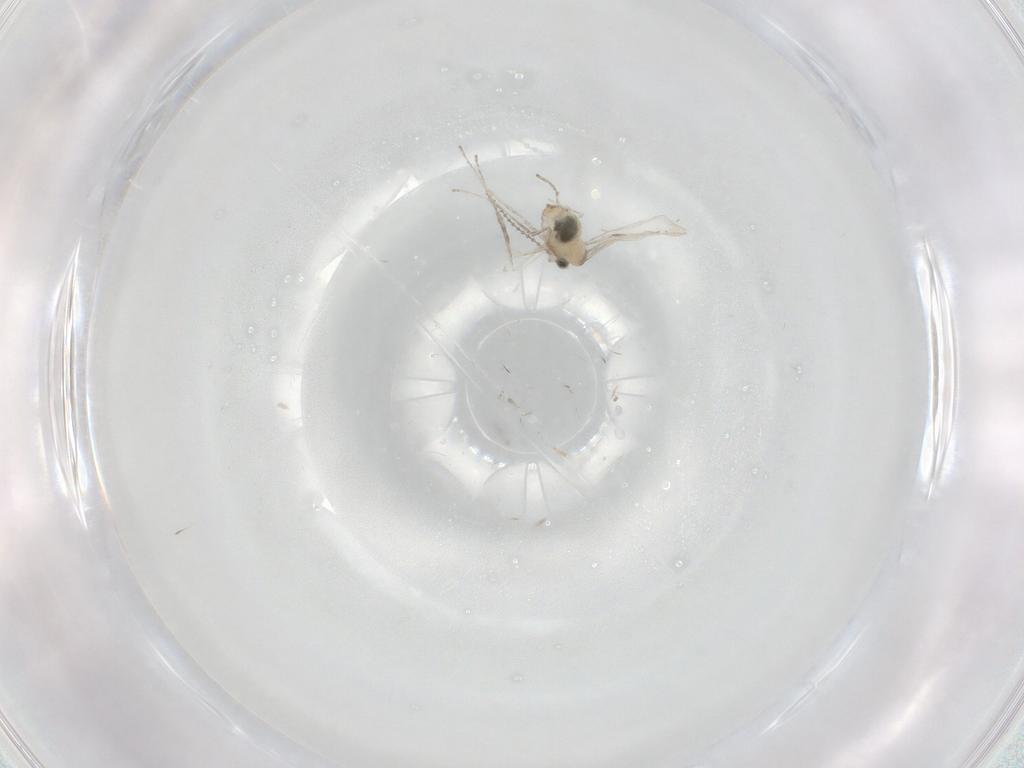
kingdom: Animalia
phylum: Arthropoda
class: Insecta
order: Diptera
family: Cecidomyiidae
